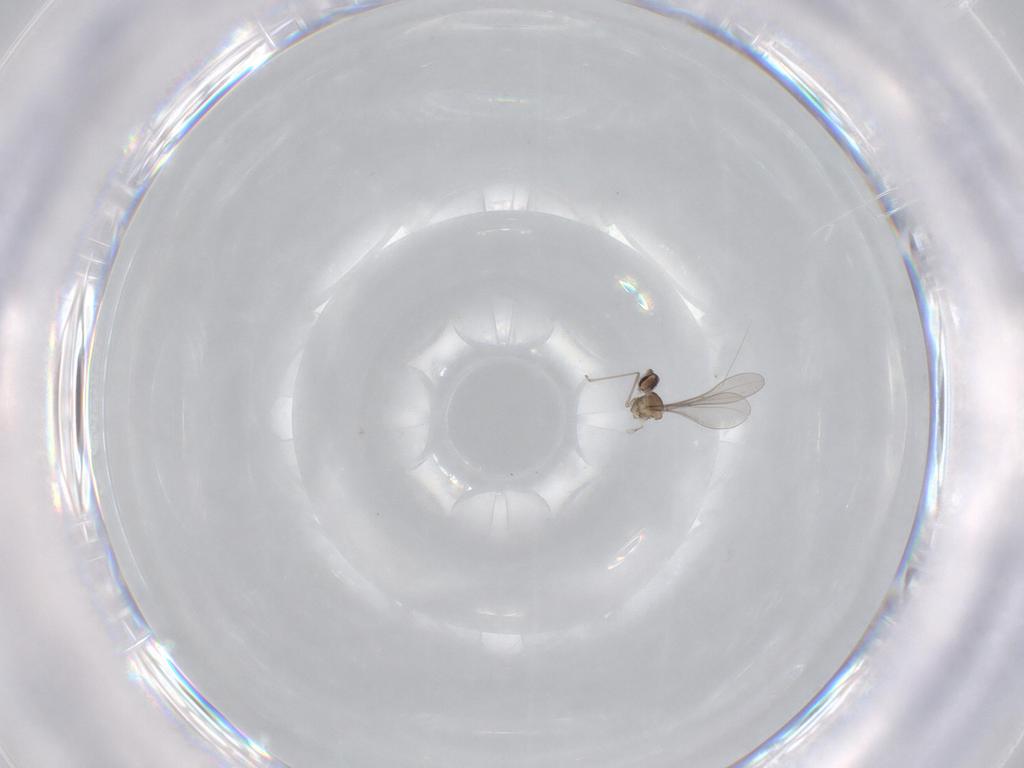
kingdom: Animalia
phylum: Arthropoda
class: Insecta
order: Diptera
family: Cecidomyiidae
